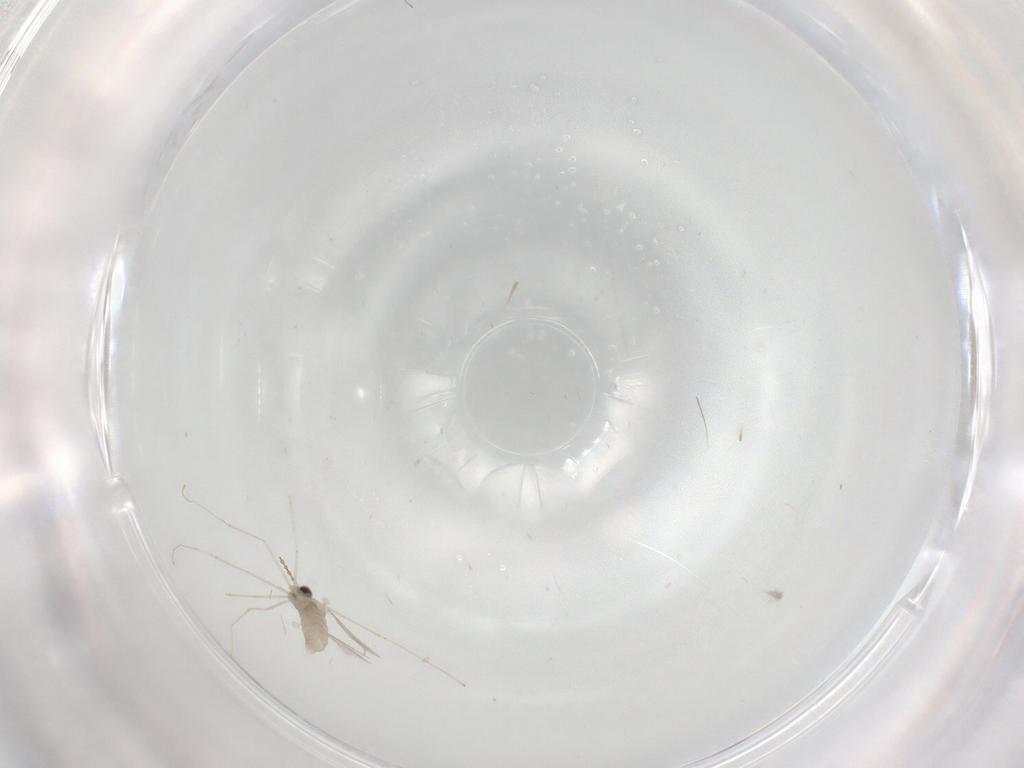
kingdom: Animalia
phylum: Arthropoda
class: Insecta
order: Diptera
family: Cecidomyiidae
